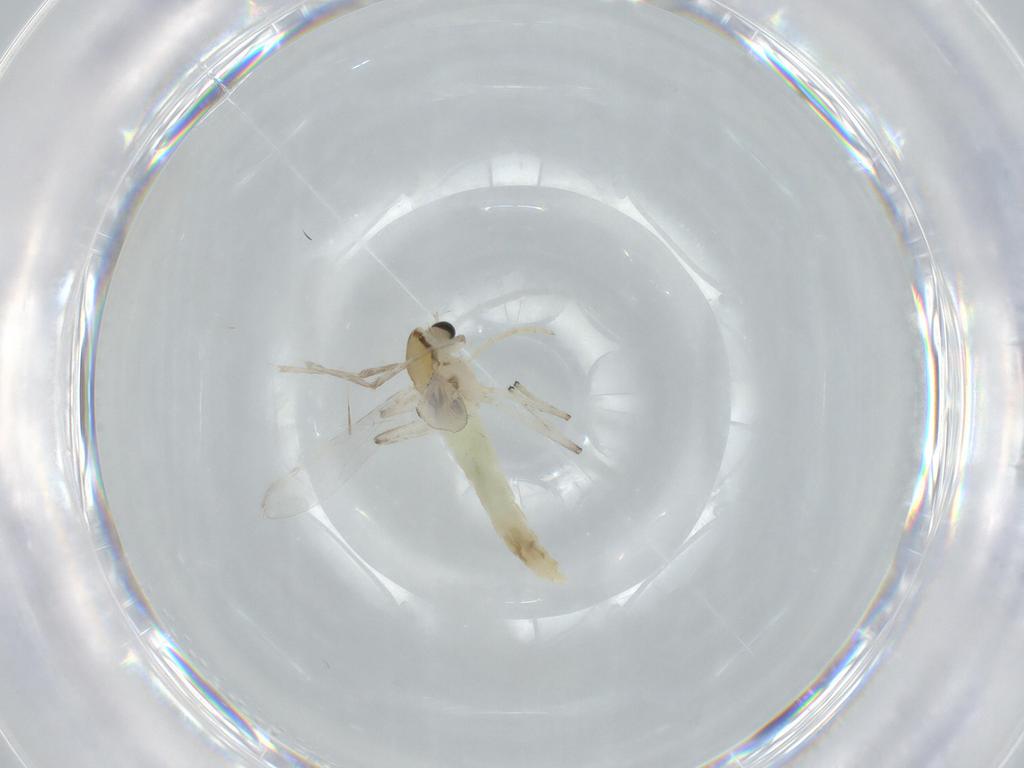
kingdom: Animalia
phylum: Arthropoda
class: Insecta
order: Diptera
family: Chironomidae
